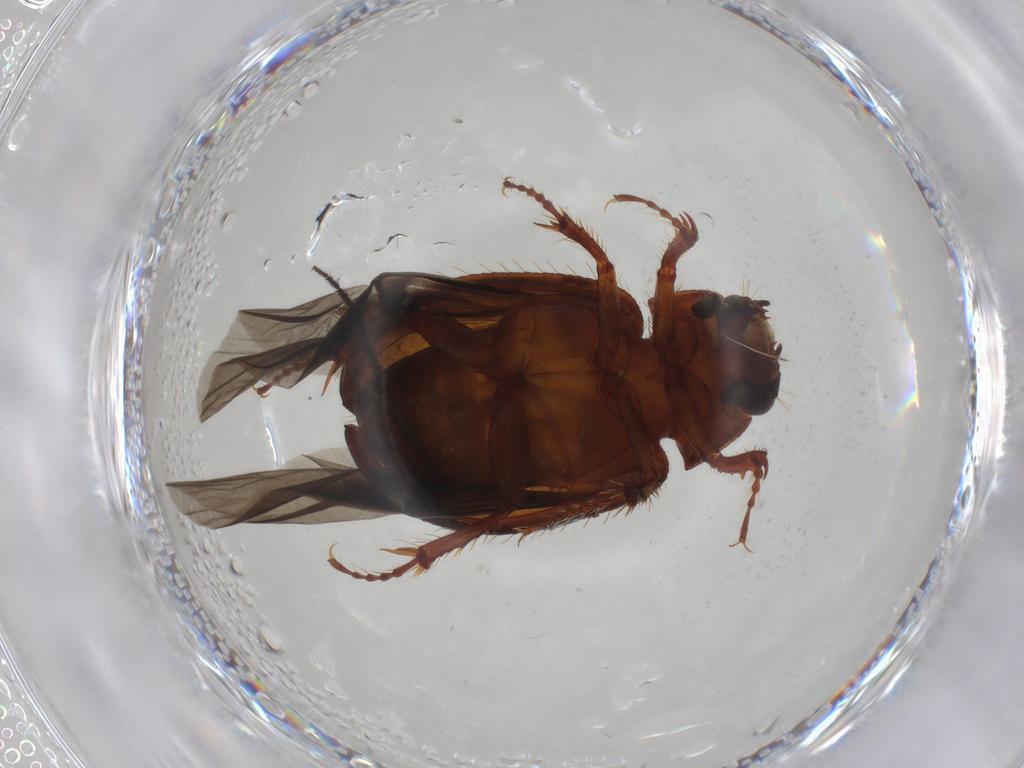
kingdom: Animalia
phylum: Arthropoda
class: Insecta
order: Coleoptera
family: Hybosoridae
